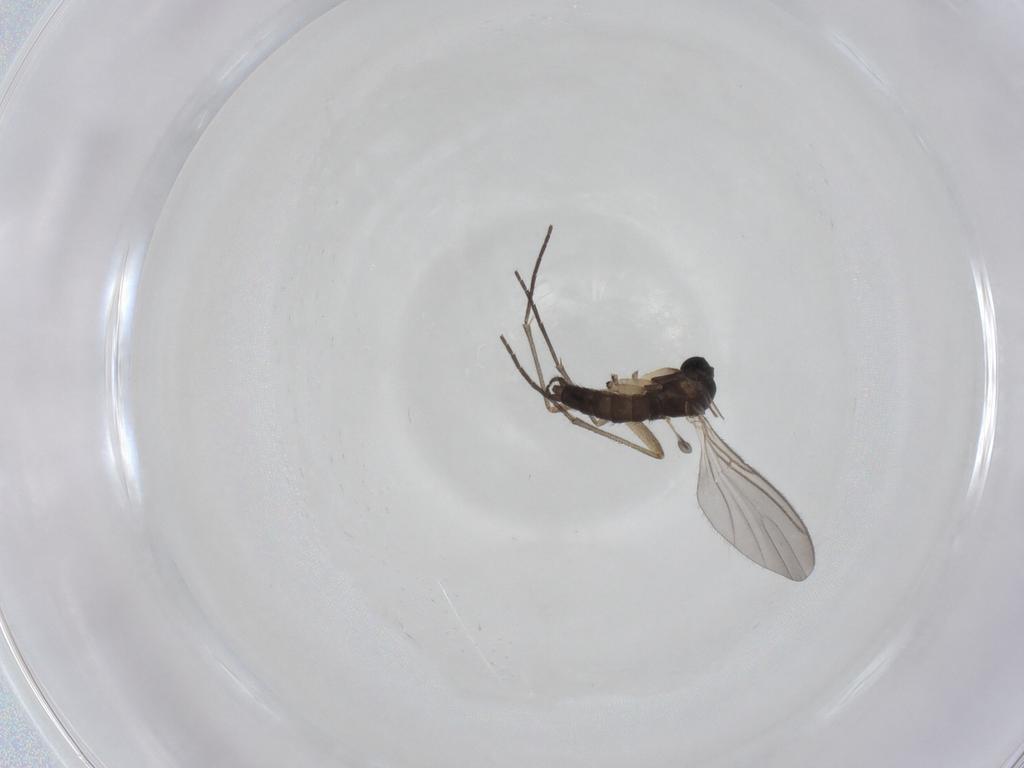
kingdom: Animalia
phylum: Arthropoda
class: Insecta
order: Diptera
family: Sciaridae
